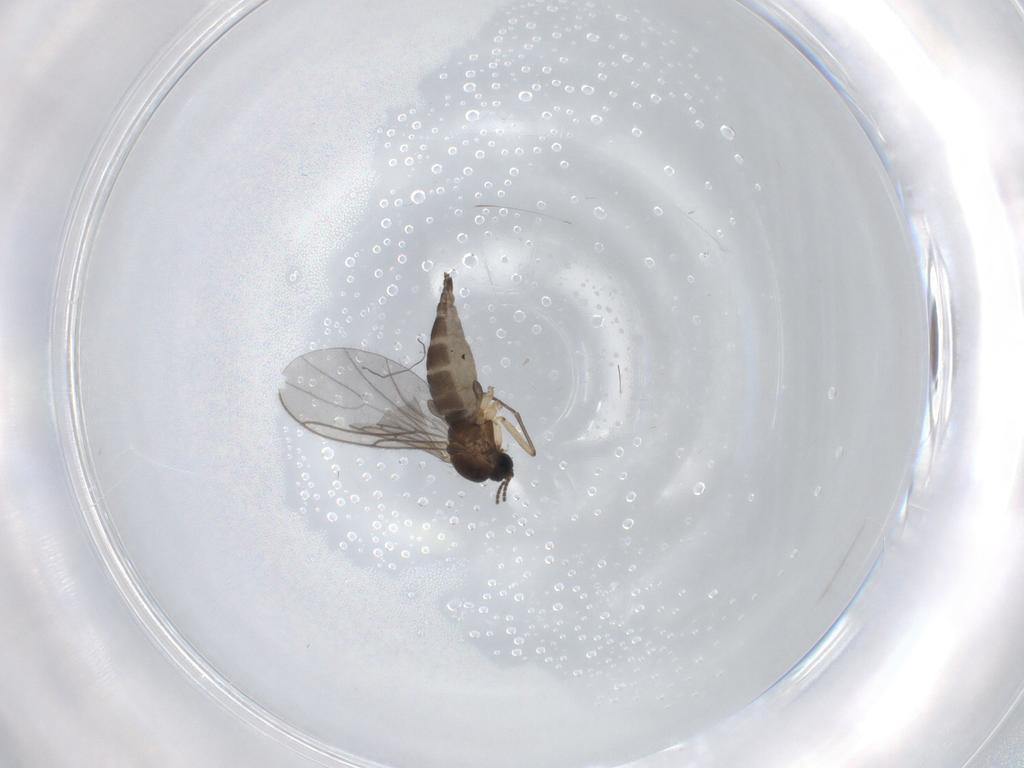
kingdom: Animalia
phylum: Arthropoda
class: Insecta
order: Diptera
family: Sciaridae
